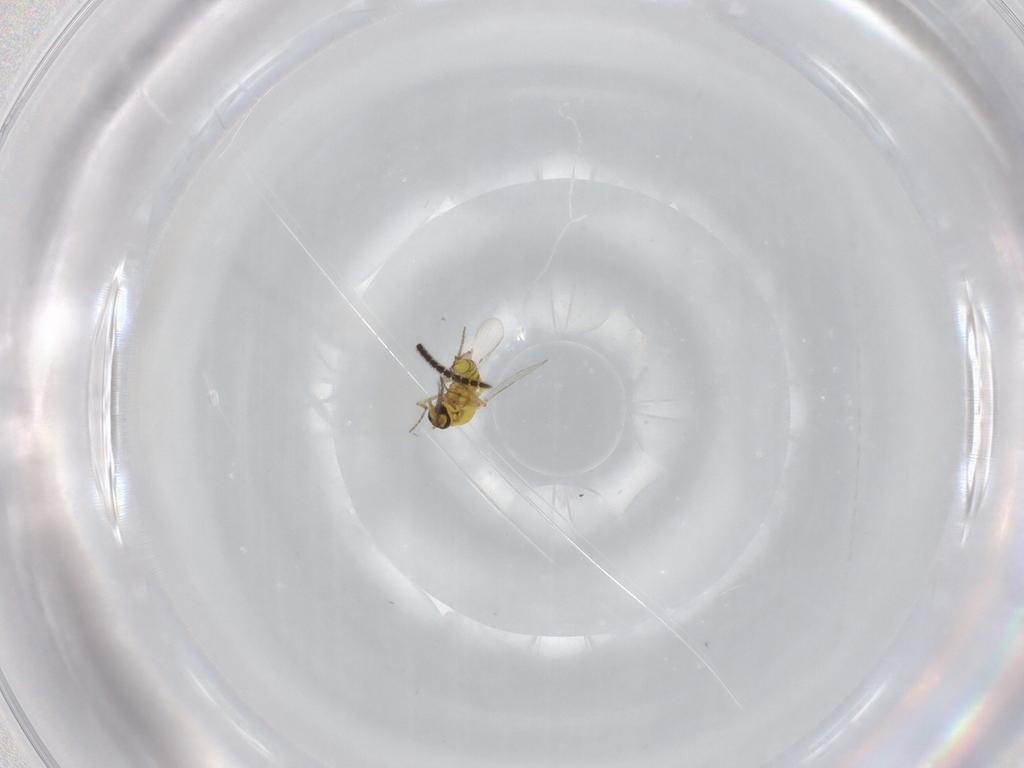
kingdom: Animalia
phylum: Arthropoda
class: Insecta
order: Diptera
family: Ceratopogonidae
